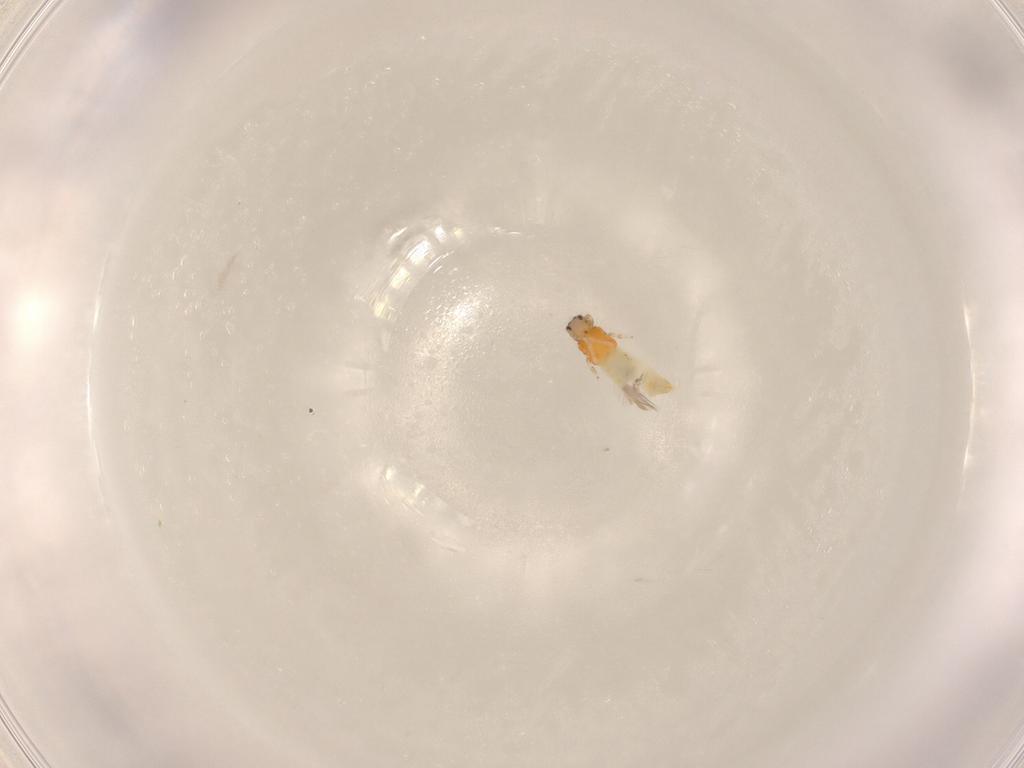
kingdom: Animalia
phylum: Arthropoda
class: Insecta
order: Thysanoptera
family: Thripidae
